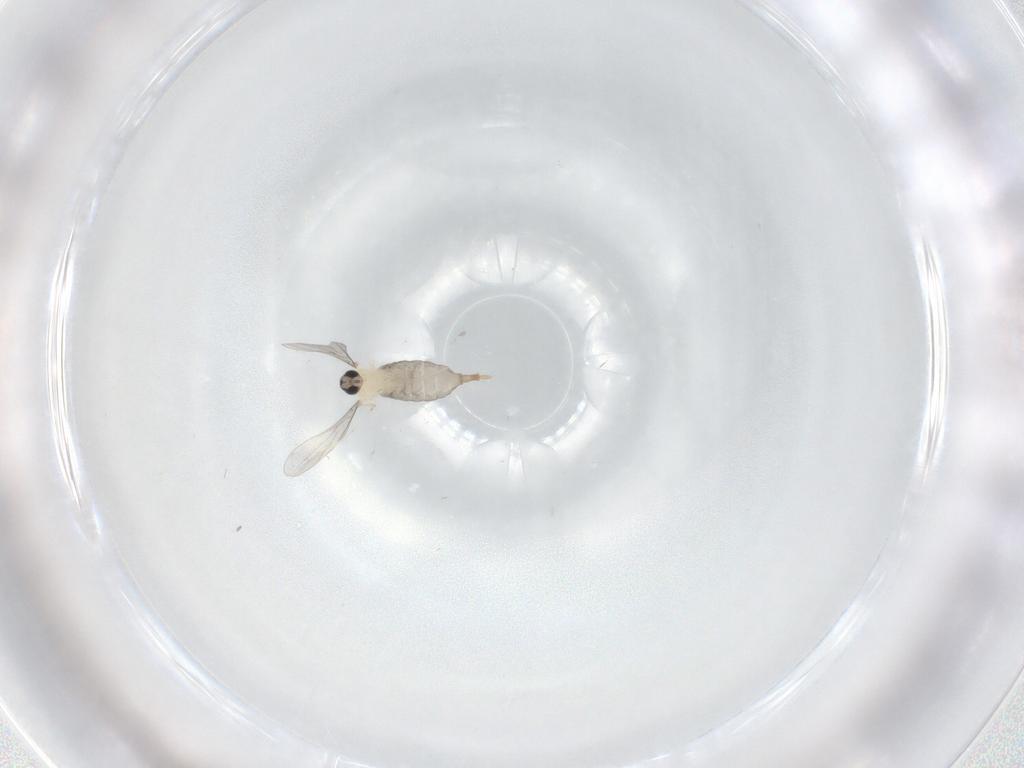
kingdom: Animalia
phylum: Arthropoda
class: Insecta
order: Diptera
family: Cecidomyiidae
